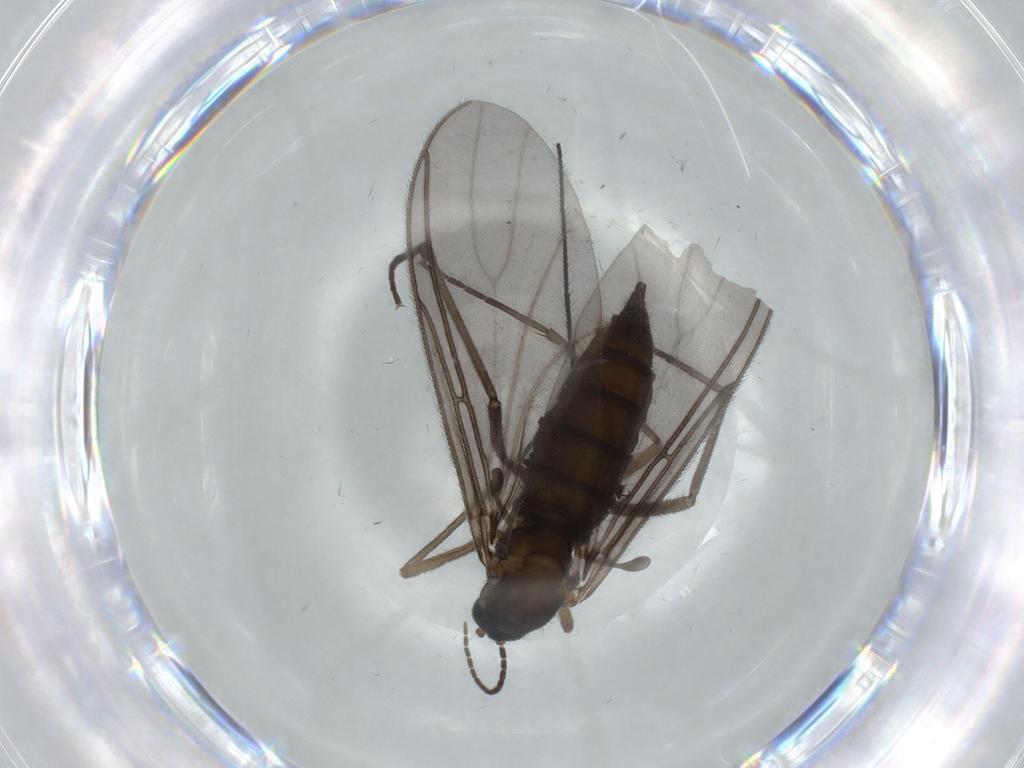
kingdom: Animalia
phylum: Arthropoda
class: Insecta
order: Diptera
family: Sciaridae
